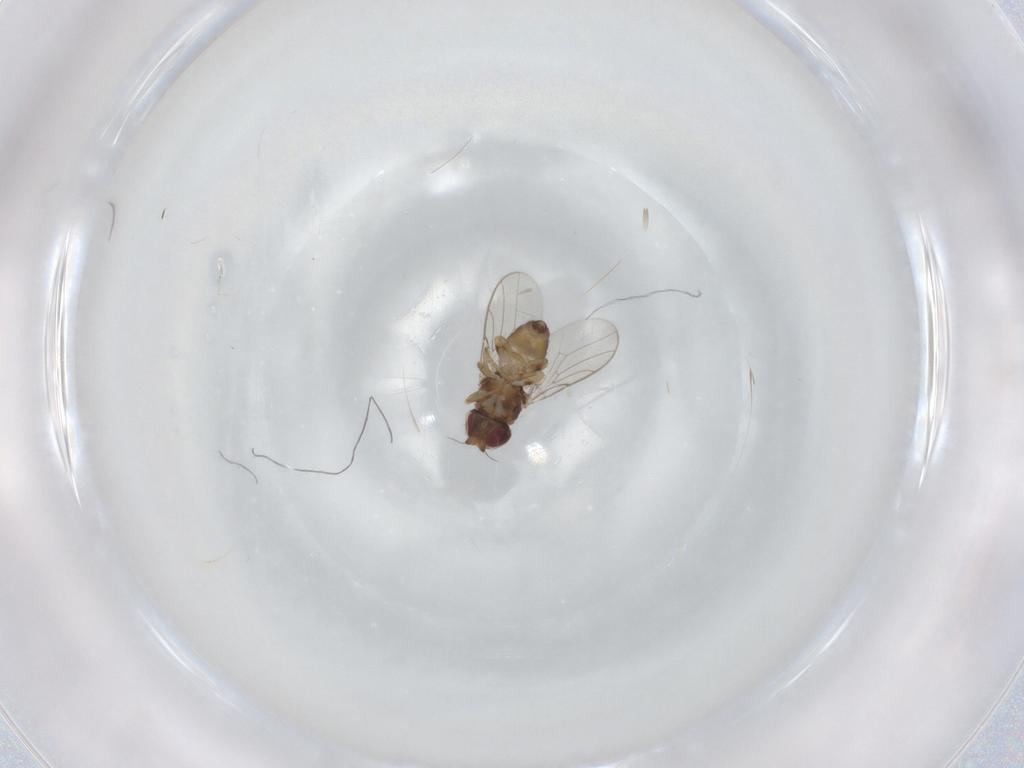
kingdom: Animalia
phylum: Arthropoda
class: Insecta
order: Diptera
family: Chloropidae
